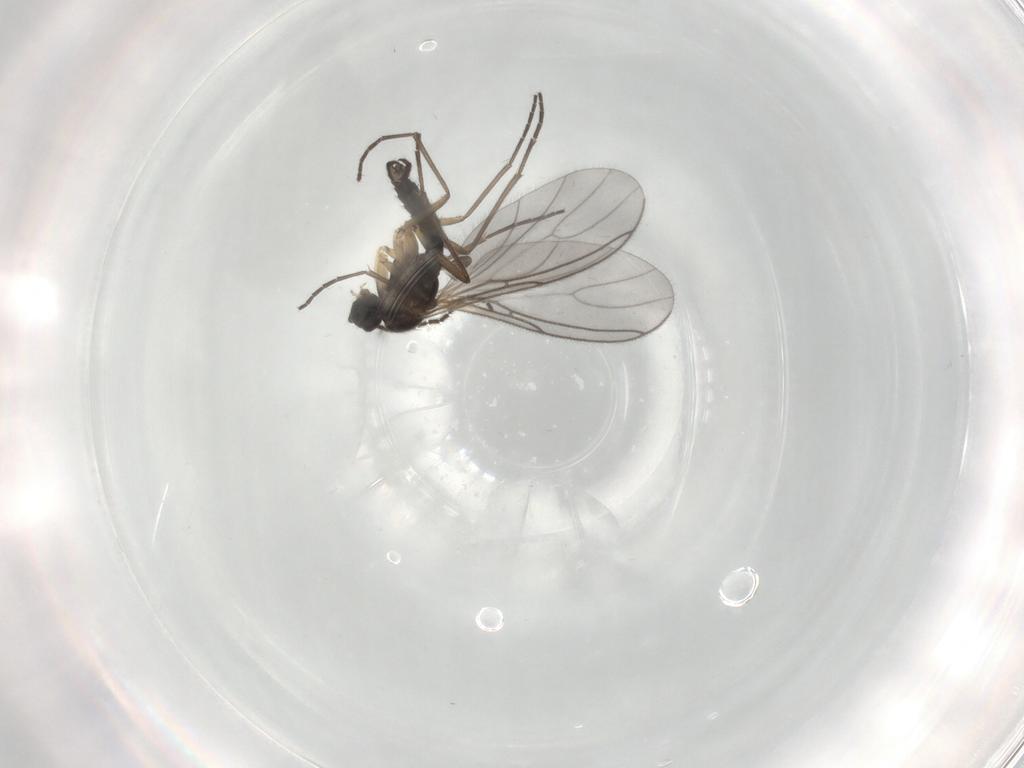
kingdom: Animalia
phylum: Arthropoda
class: Insecta
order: Diptera
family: Sciaridae
